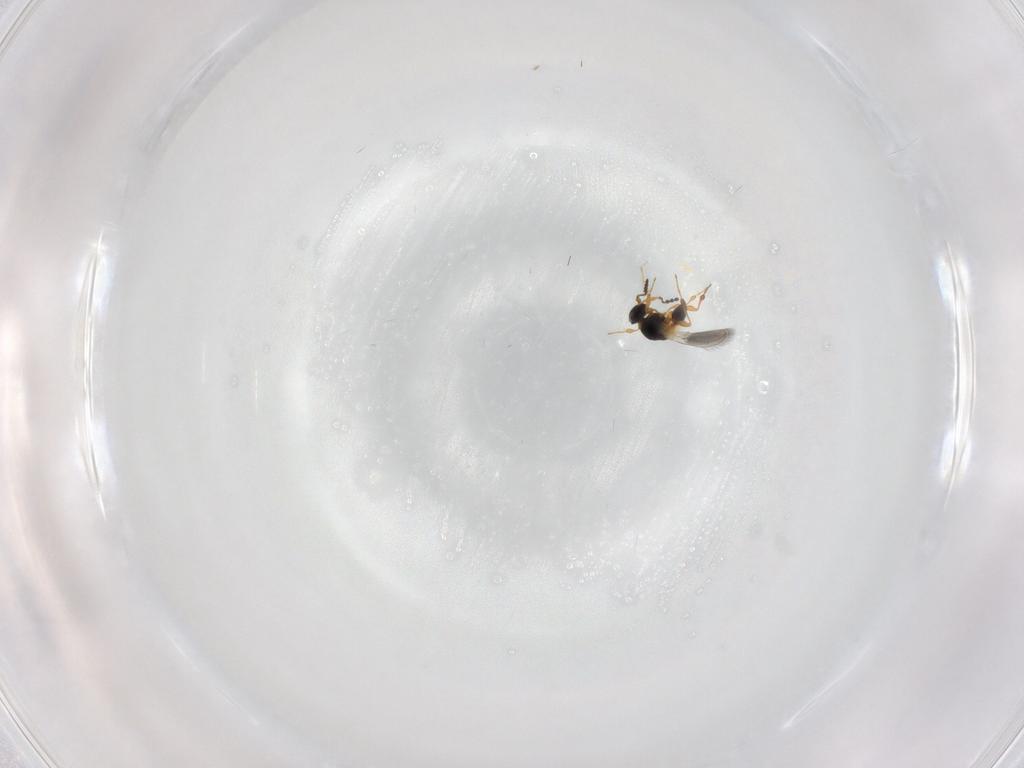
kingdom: Animalia
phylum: Arthropoda
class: Insecta
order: Hymenoptera
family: Platygastridae
